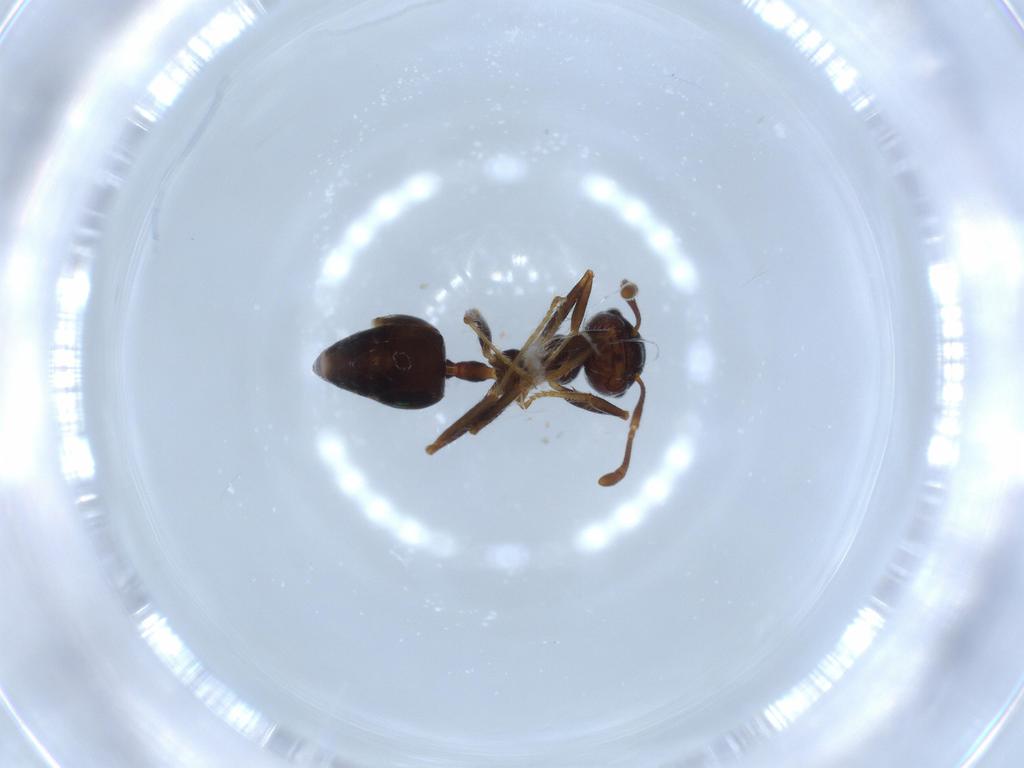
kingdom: Animalia
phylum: Arthropoda
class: Insecta
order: Hymenoptera
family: Formicidae
